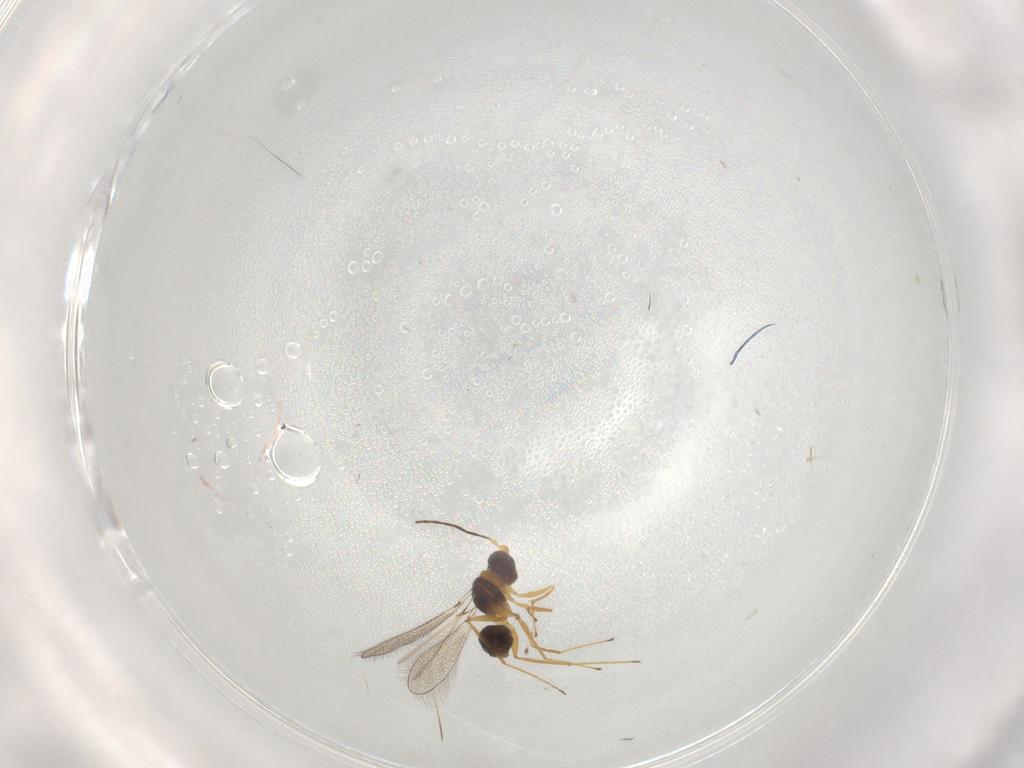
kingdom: Animalia
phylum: Arthropoda
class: Insecta
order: Hymenoptera
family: Mymaridae
